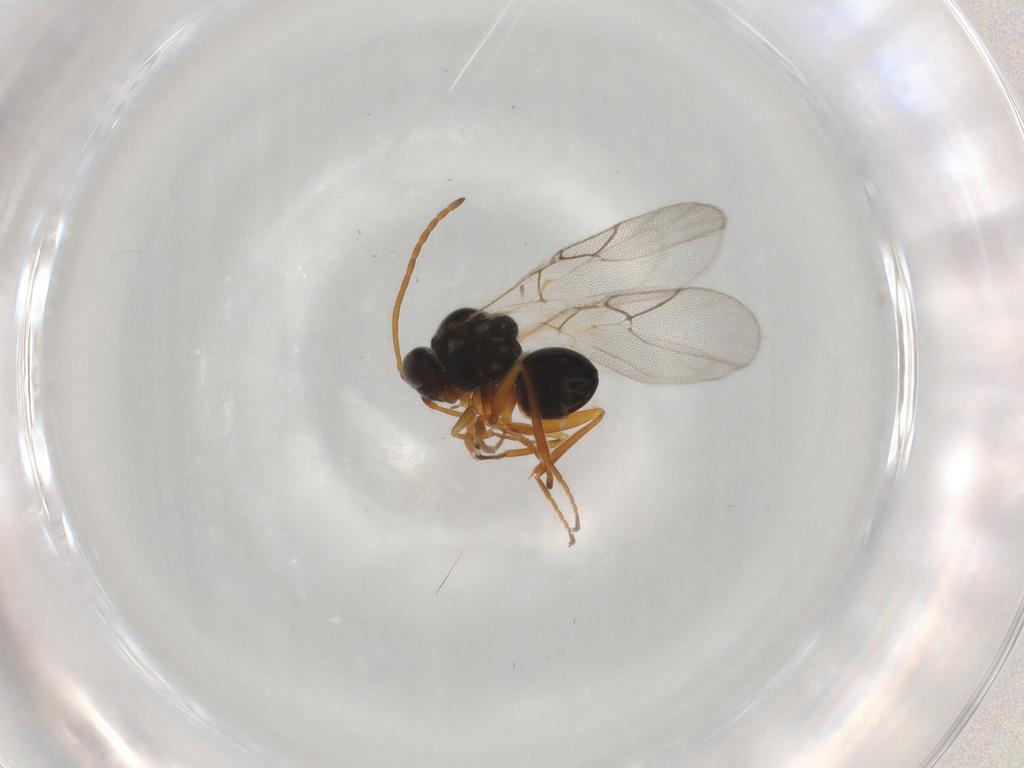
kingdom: Animalia
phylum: Arthropoda
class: Insecta
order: Hymenoptera
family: Figitidae
